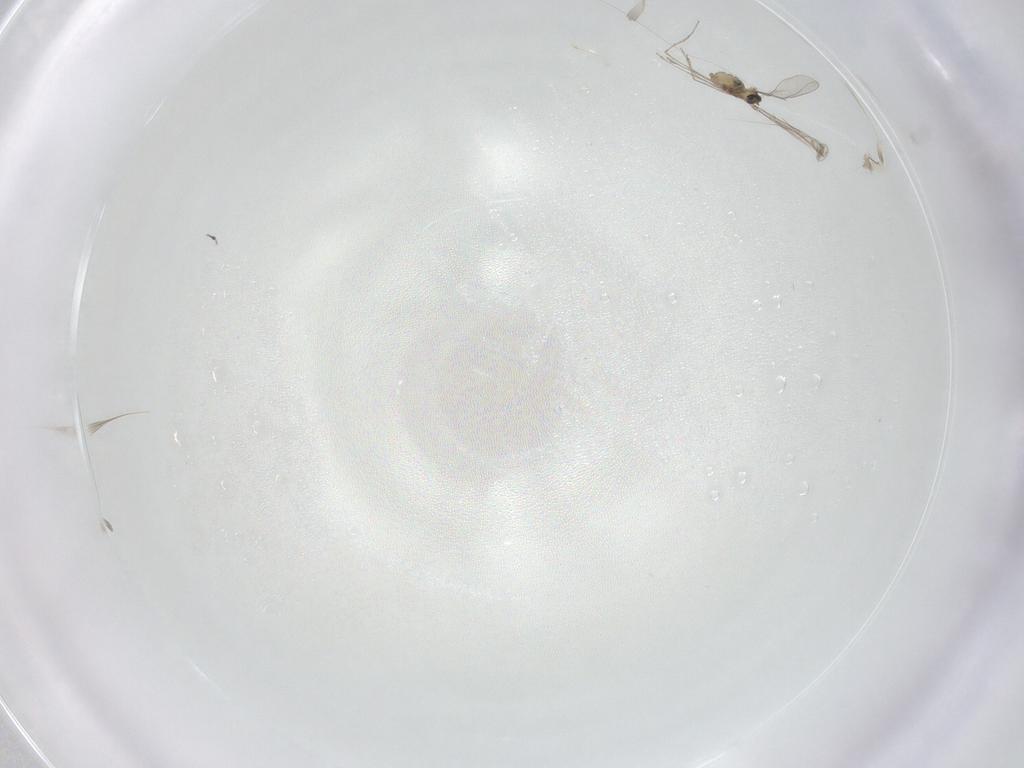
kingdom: Animalia
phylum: Arthropoda
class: Insecta
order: Diptera
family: Cecidomyiidae
